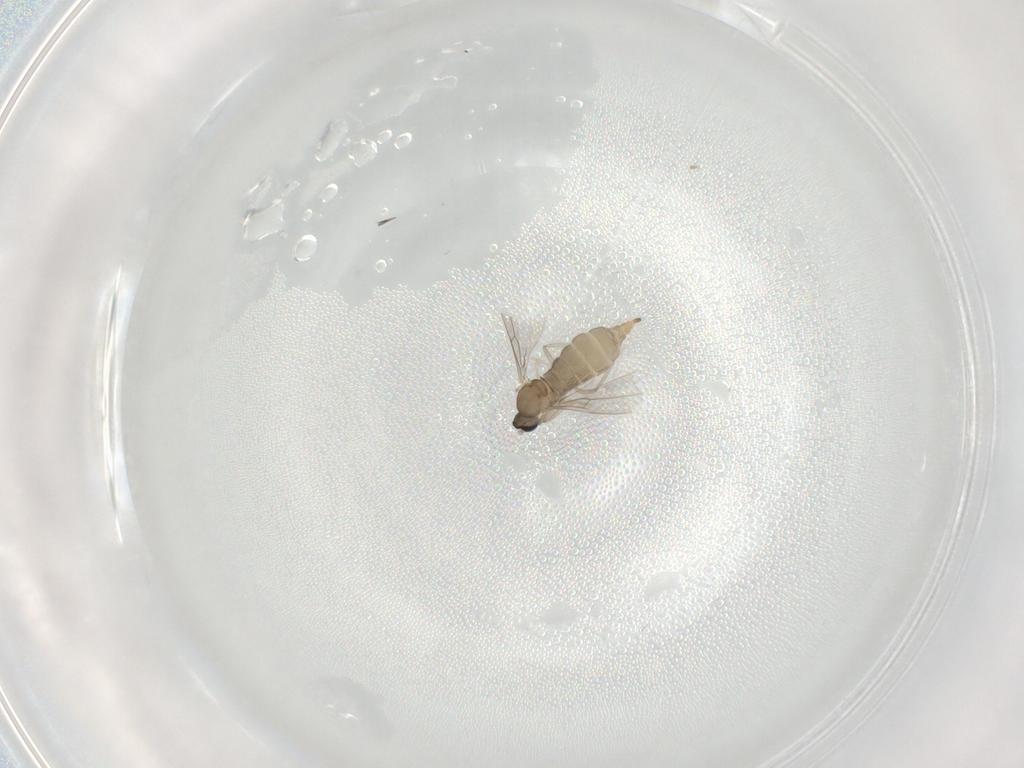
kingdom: Animalia
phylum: Arthropoda
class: Insecta
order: Diptera
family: Cecidomyiidae
